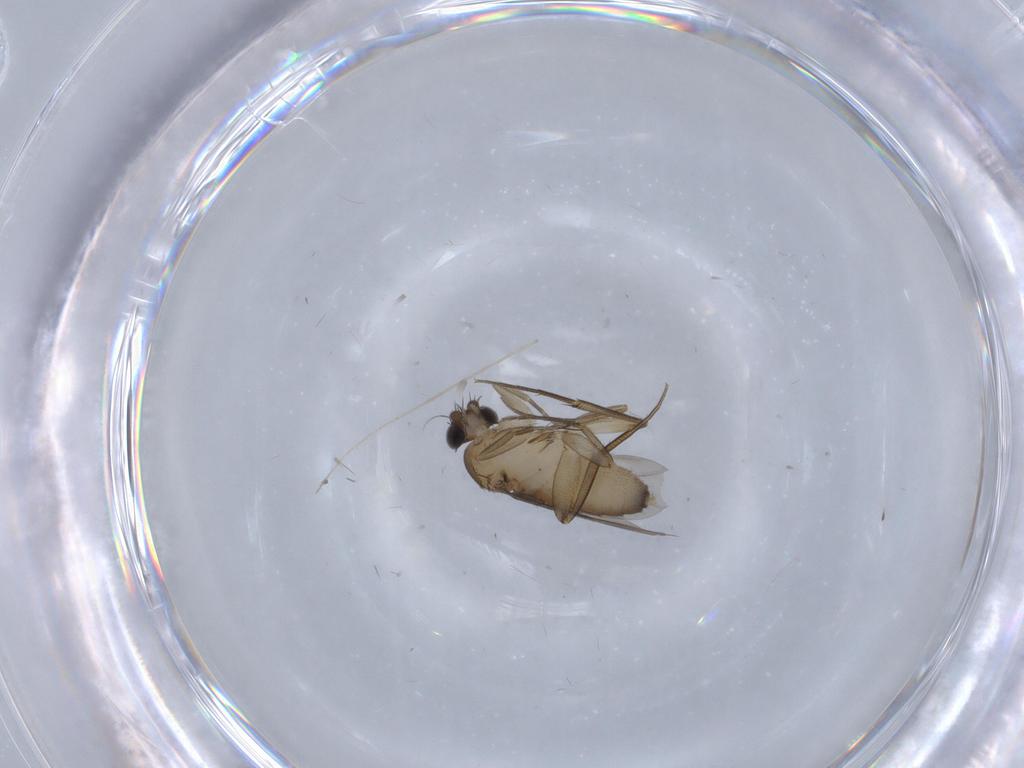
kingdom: Animalia
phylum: Arthropoda
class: Insecta
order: Diptera
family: Phoridae
